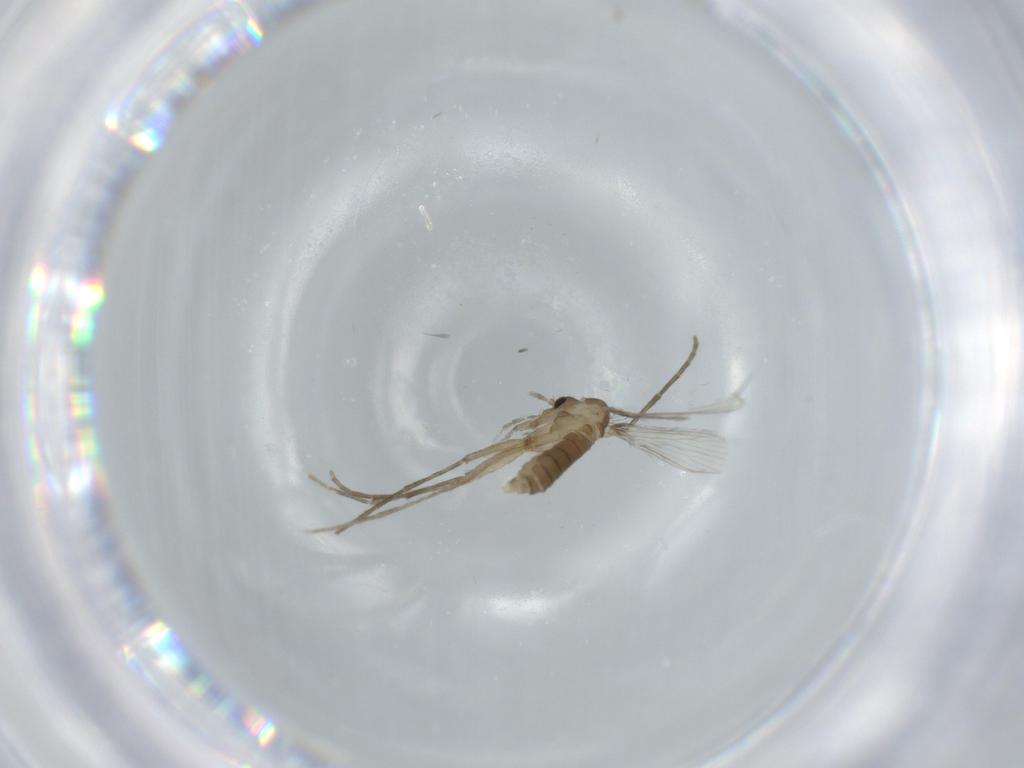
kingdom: Animalia
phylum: Arthropoda
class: Insecta
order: Diptera
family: Psychodidae
